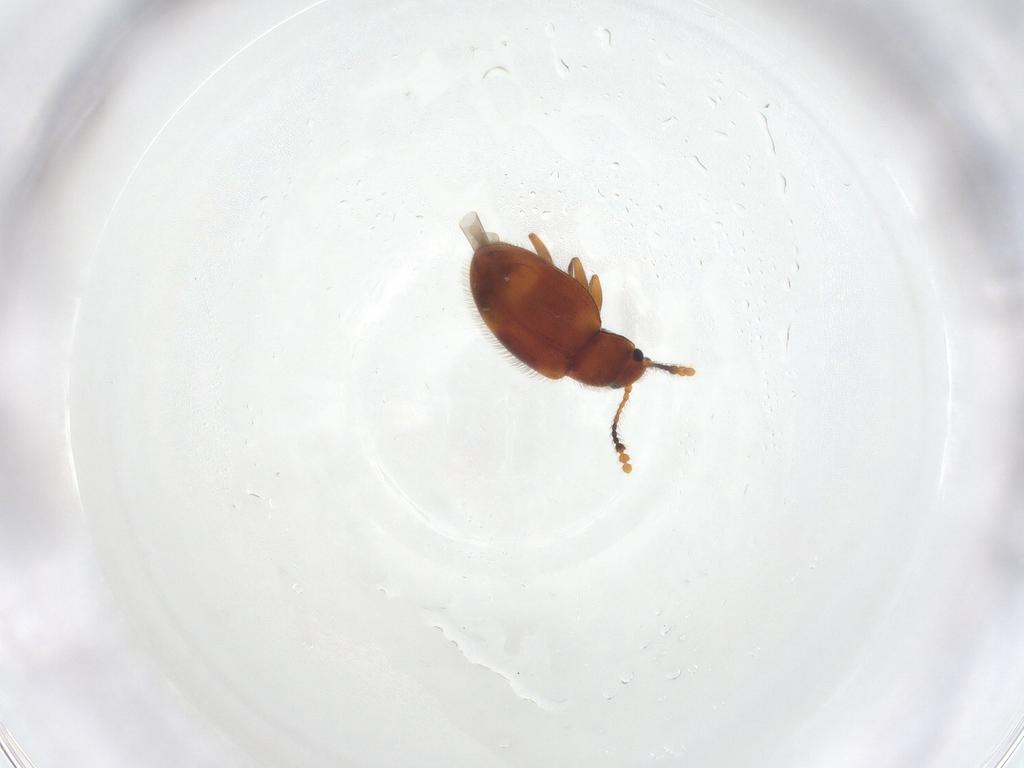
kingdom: Animalia
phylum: Arthropoda
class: Insecta
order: Coleoptera
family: Erotylidae
